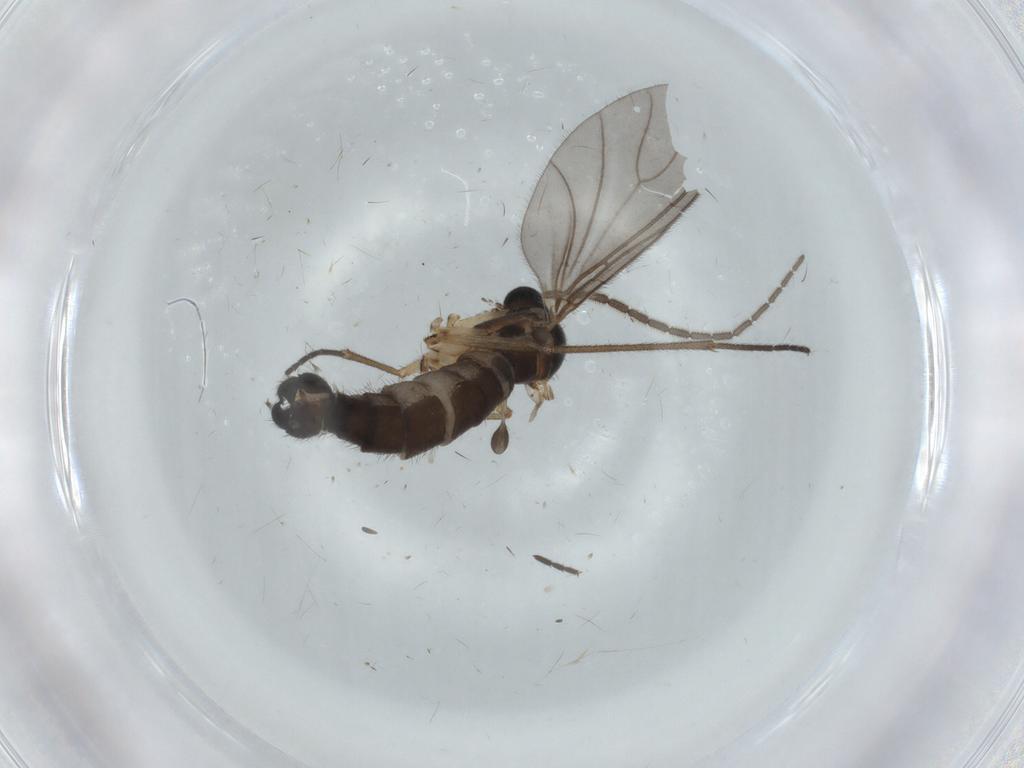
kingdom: Animalia
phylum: Arthropoda
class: Insecta
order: Diptera
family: Sciaridae
